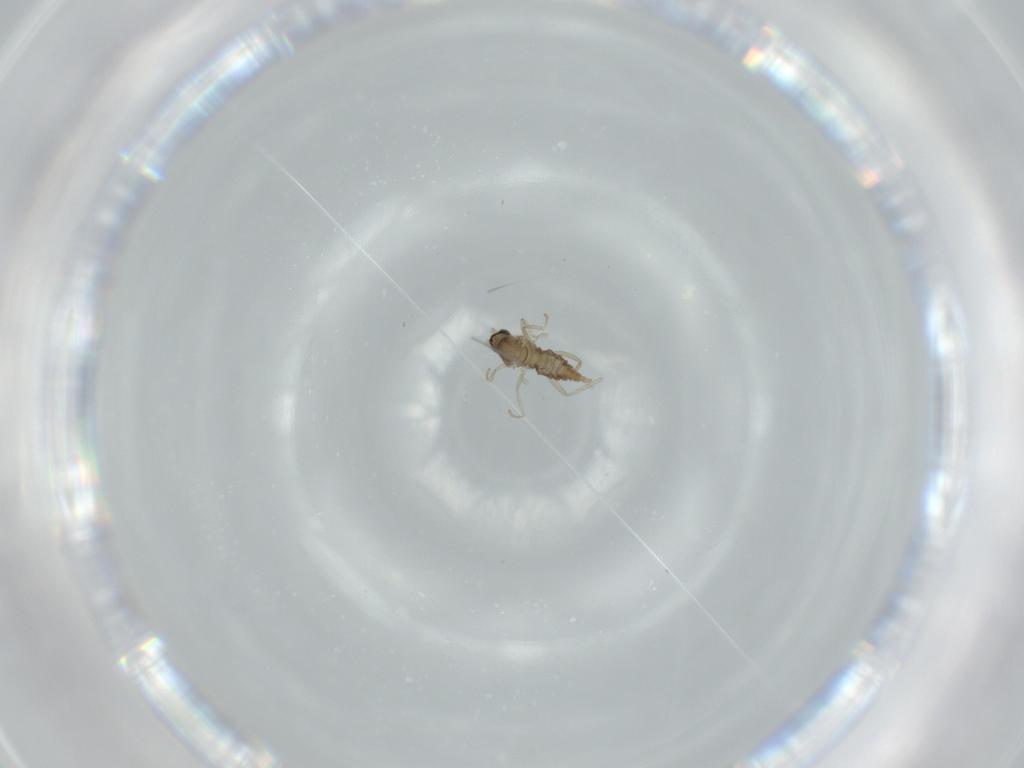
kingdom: Animalia
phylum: Arthropoda
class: Insecta
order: Diptera
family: Cecidomyiidae
